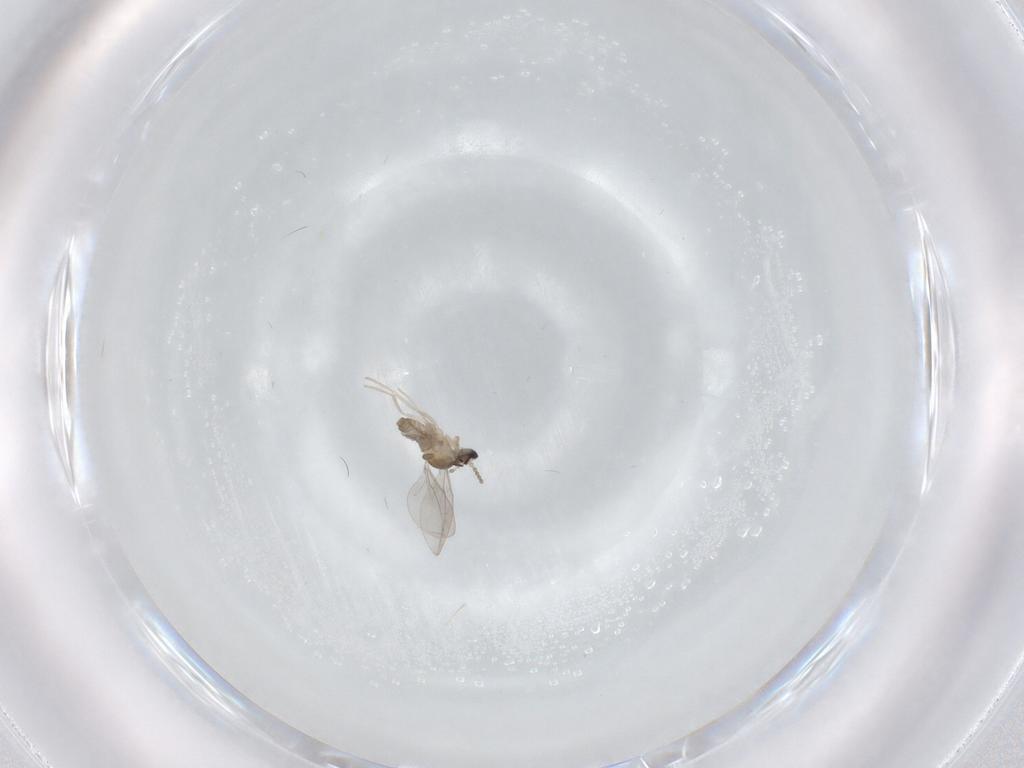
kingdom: Animalia
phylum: Arthropoda
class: Insecta
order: Diptera
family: Cecidomyiidae
